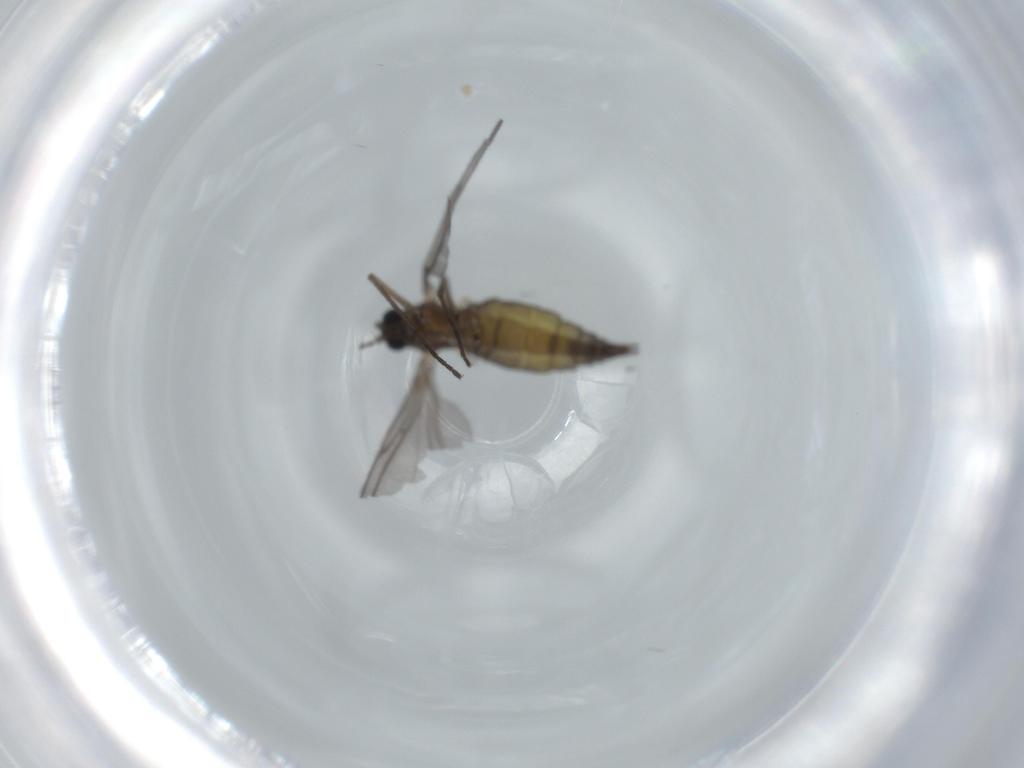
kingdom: Animalia
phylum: Arthropoda
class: Insecta
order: Diptera
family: Sciaridae
